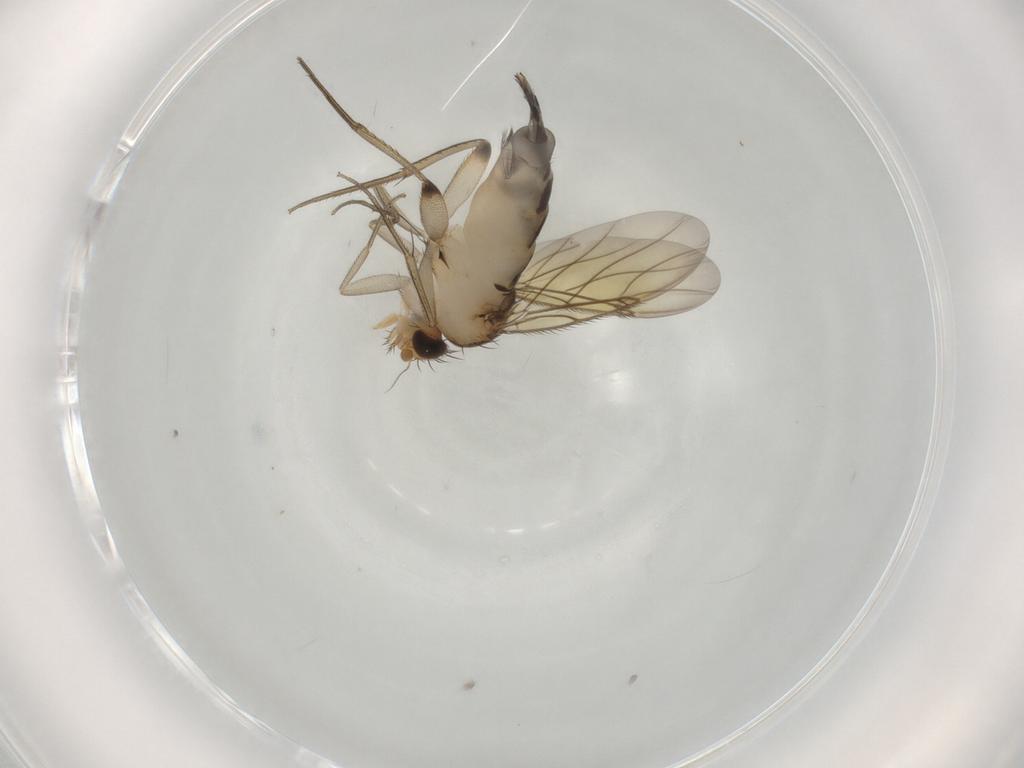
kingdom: Animalia
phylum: Arthropoda
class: Insecta
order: Diptera
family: Phoridae
